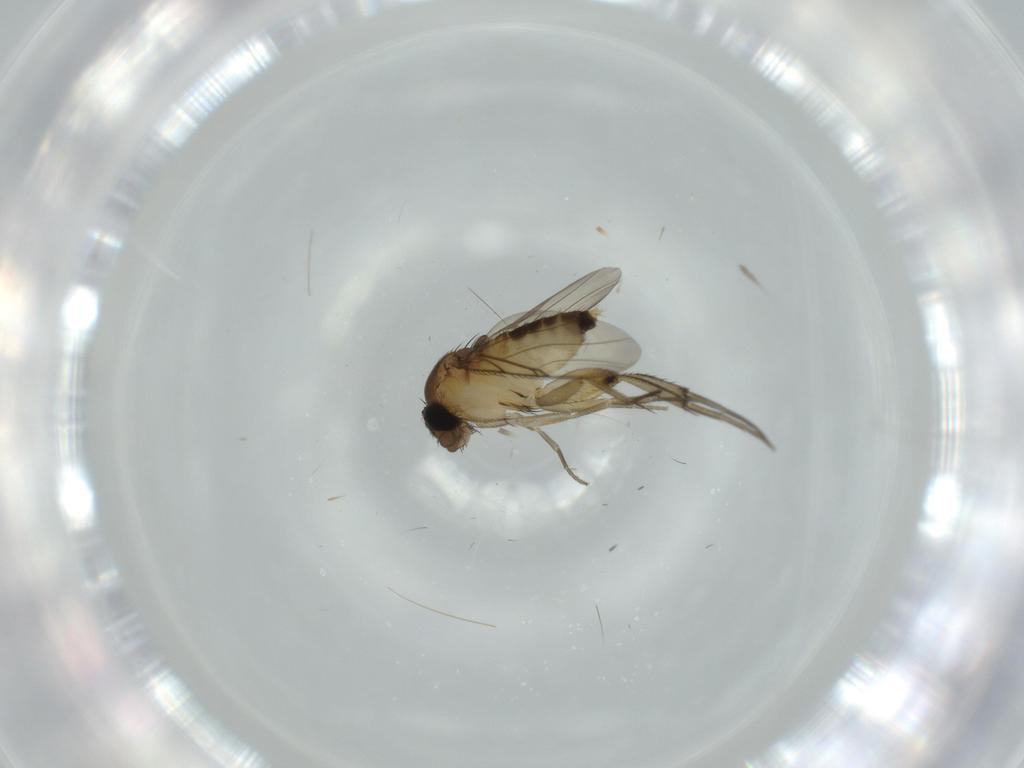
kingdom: Animalia
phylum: Arthropoda
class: Insecta
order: Diptera
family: Phoridae
